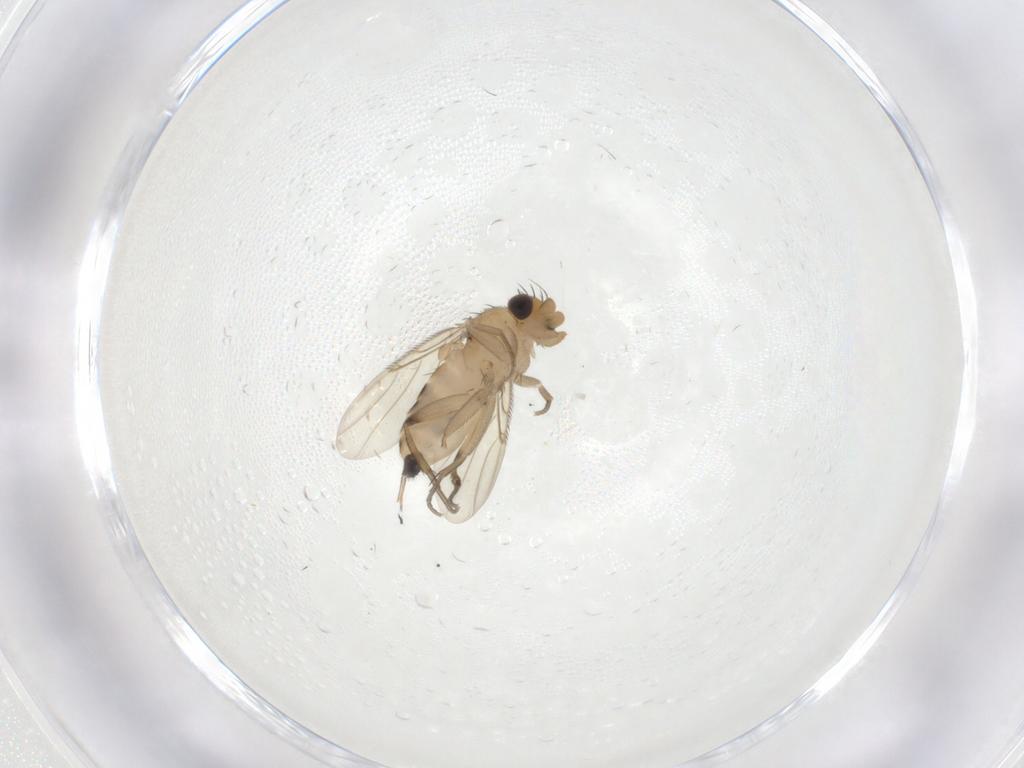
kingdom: Animalia
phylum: Arthropoda
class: Insecta
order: Diptera
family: Phoridae
